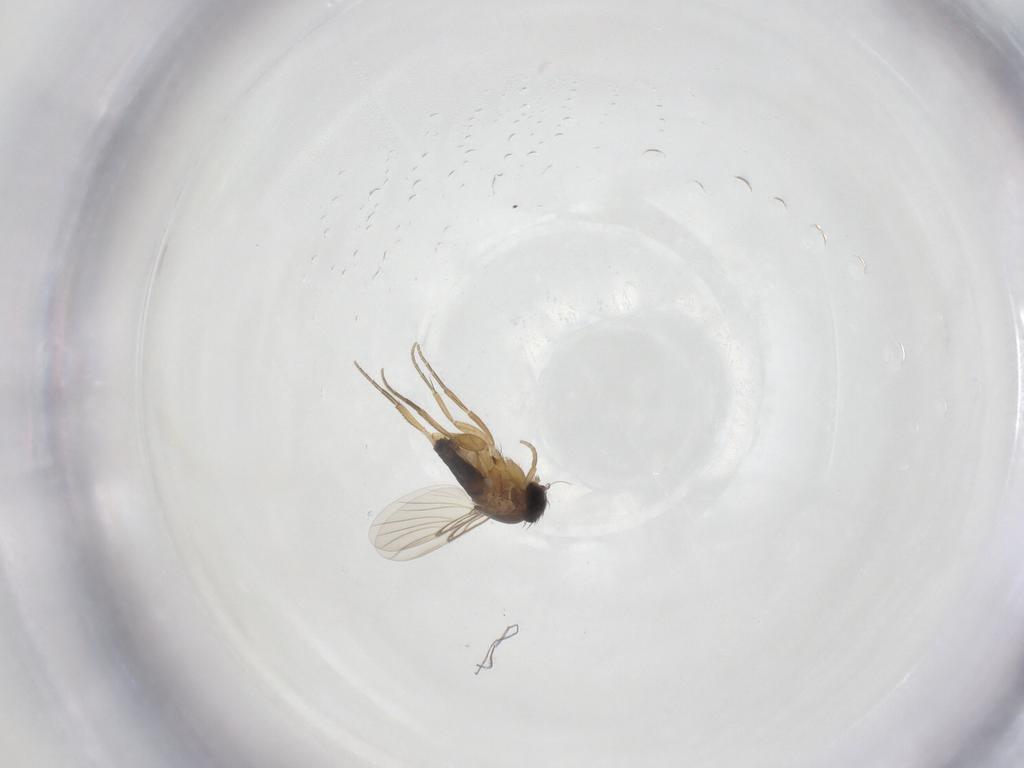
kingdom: Animalia
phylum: Arthropoda
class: Insecta
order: Diptera
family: Phoridae
